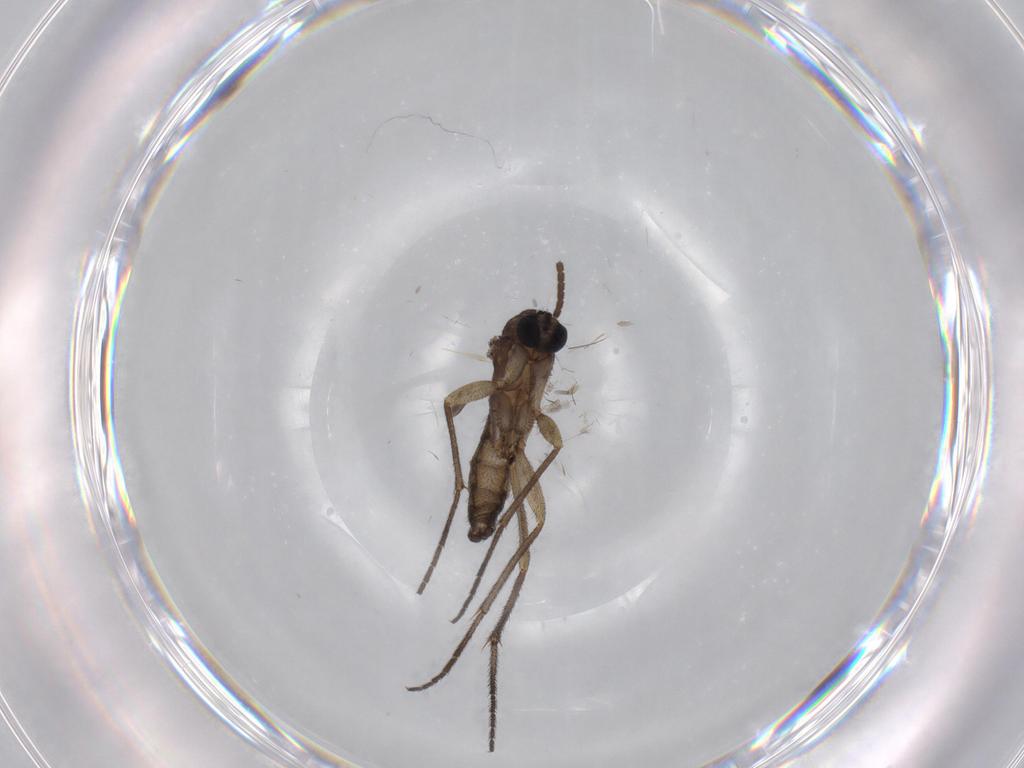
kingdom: Animalia
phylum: Arthropoda
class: Insecta
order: Diptera
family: Sciaridae
